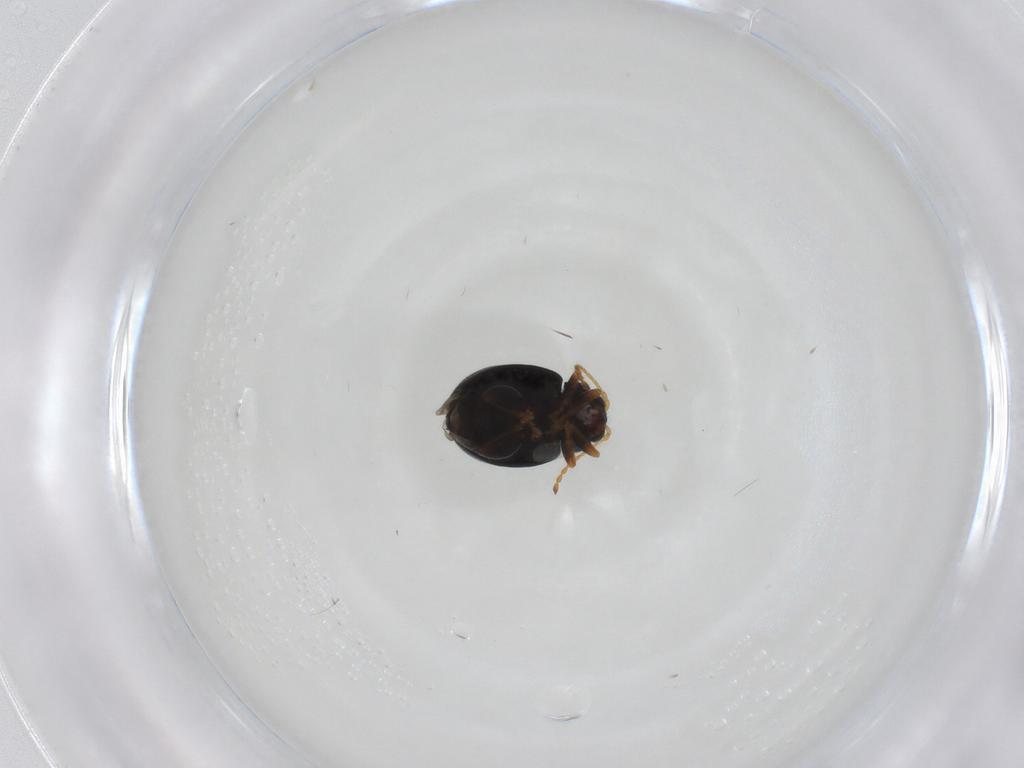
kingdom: Animalia
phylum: Arthropoda
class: Insecta
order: Coleoptera
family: Chrysomelidae
